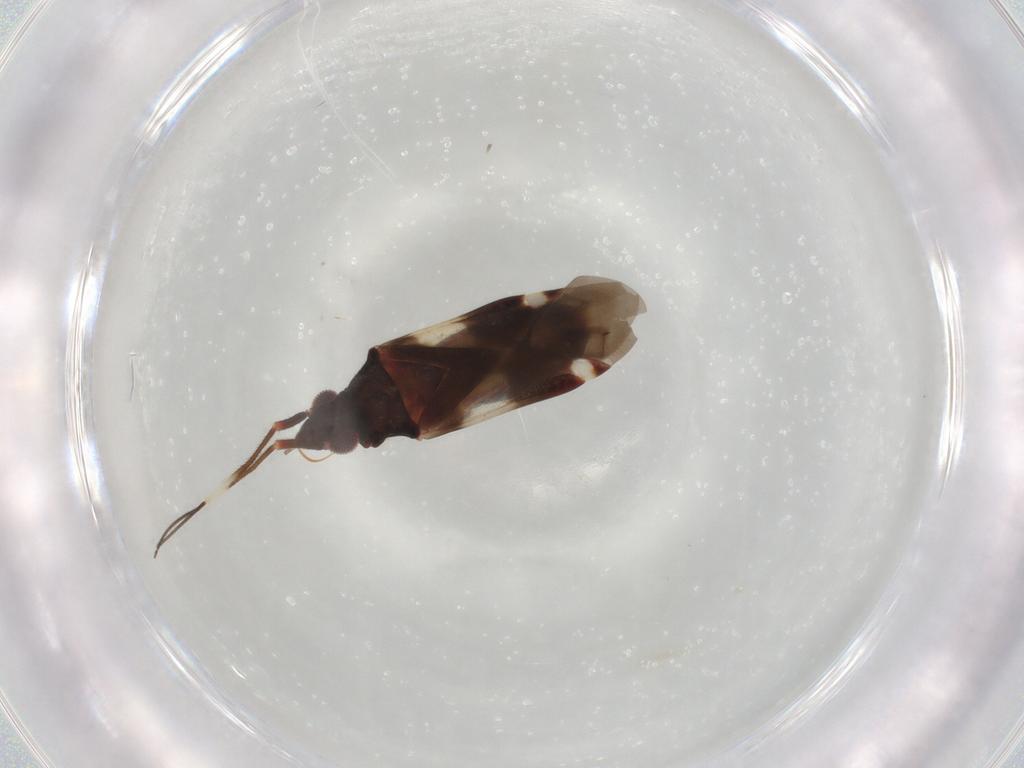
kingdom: Animalia
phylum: Arthropoda
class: Insecta
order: Hemiptera
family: Miridae
